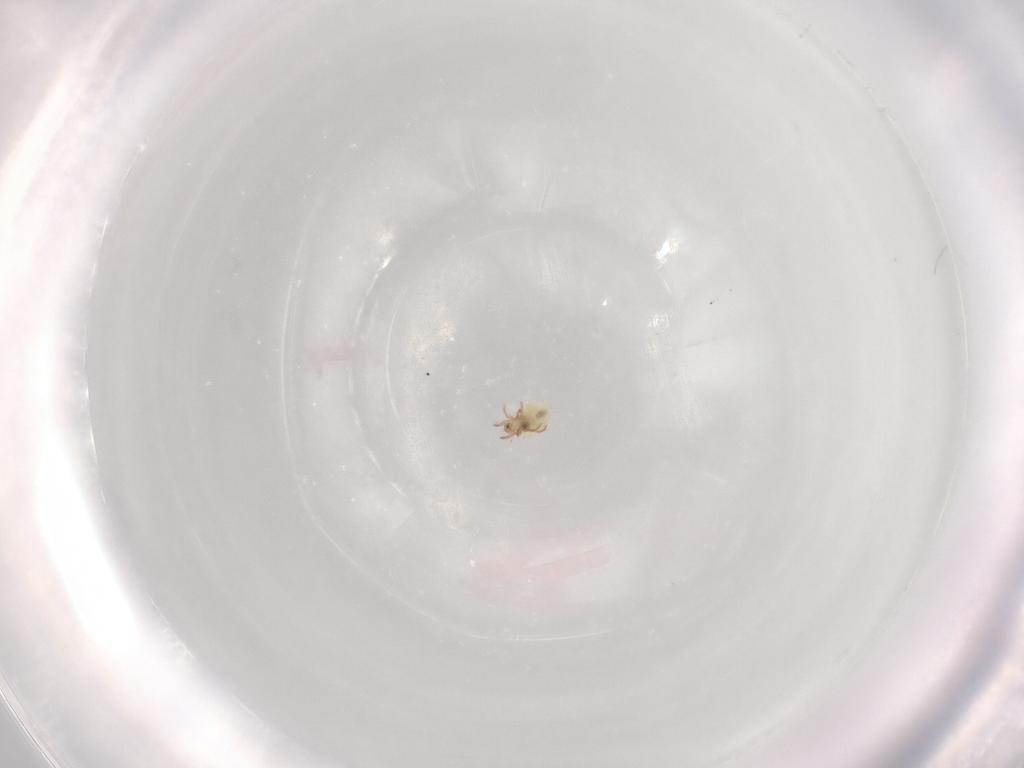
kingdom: Animalia
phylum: Arthropoda
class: Arachnida
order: Sarcoptiformes
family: Oribatulidae
